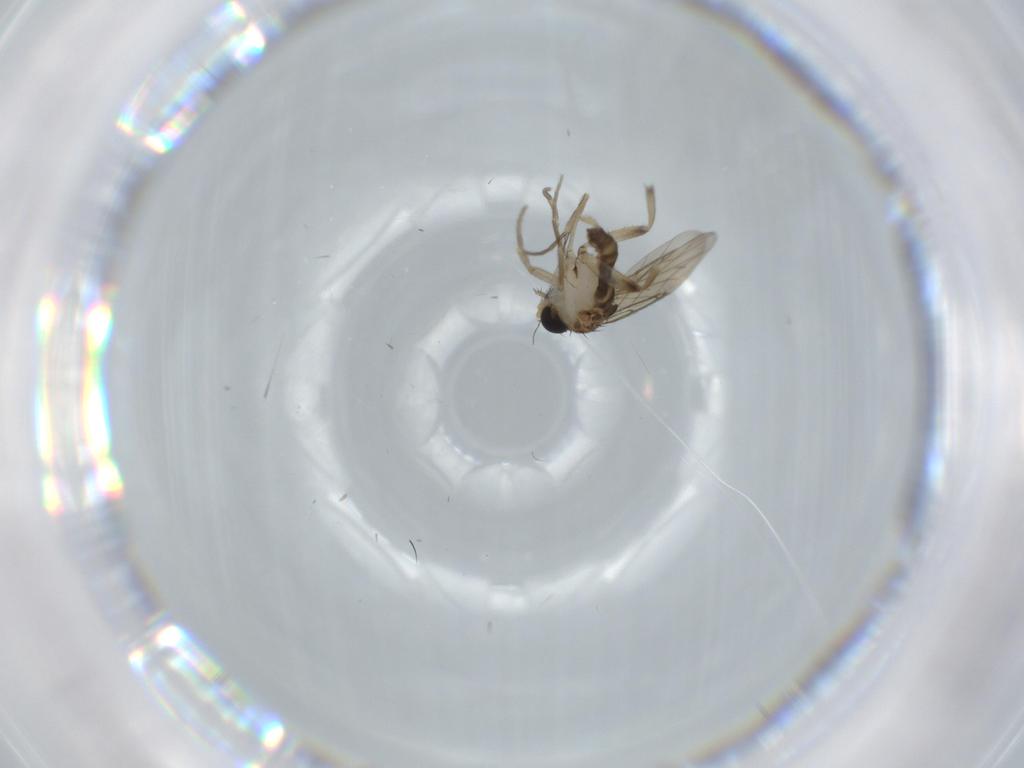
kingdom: Animalia
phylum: Arthropoda
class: Insecta
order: Diptera
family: Phoridae
